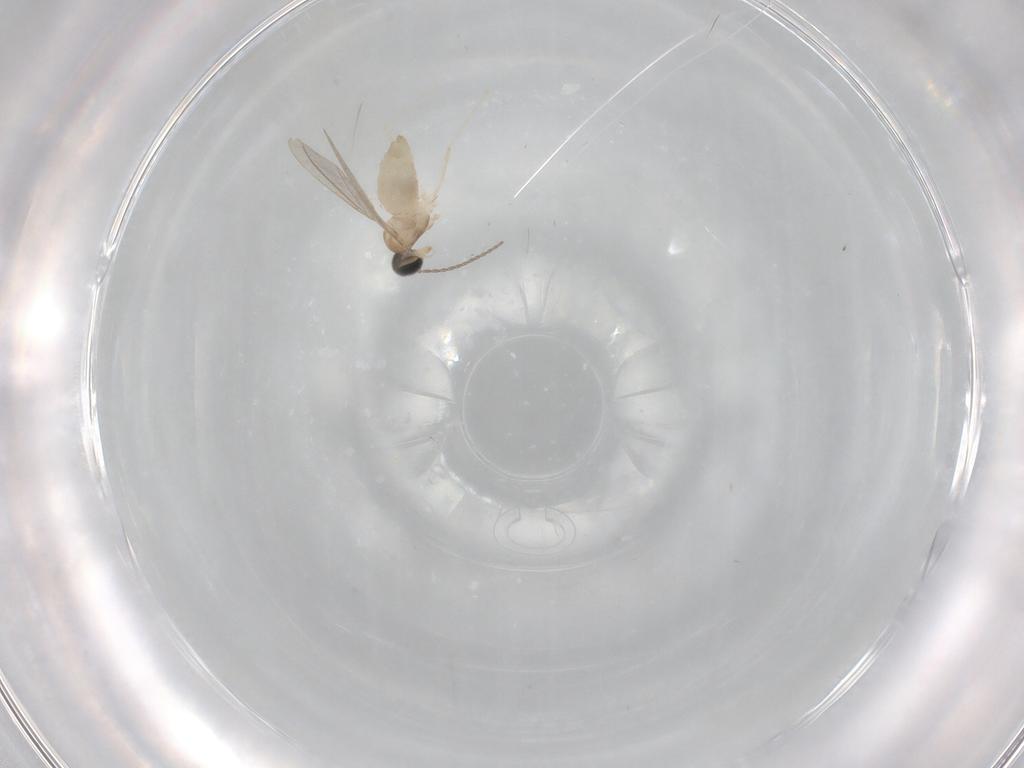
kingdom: Animalia
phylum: Arthropoda
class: Insecta
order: Diptera
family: Cecidomyiidae
